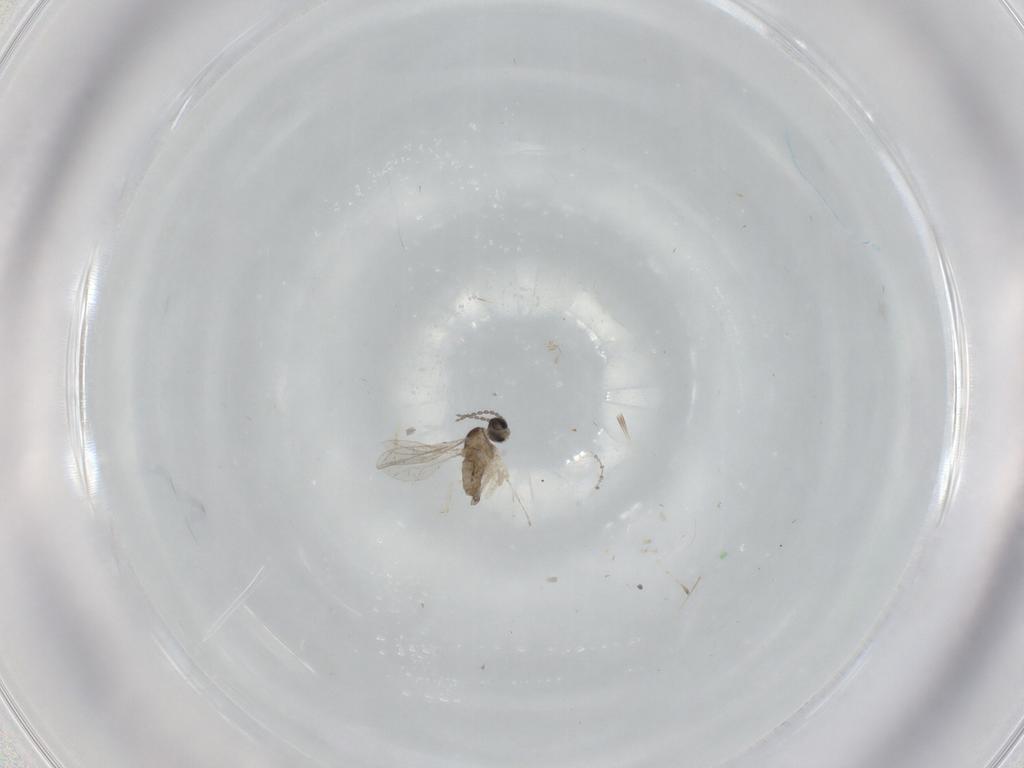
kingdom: Animalia
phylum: Arthropoda
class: Insecta
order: Diptera
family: Cecidomyiidae
